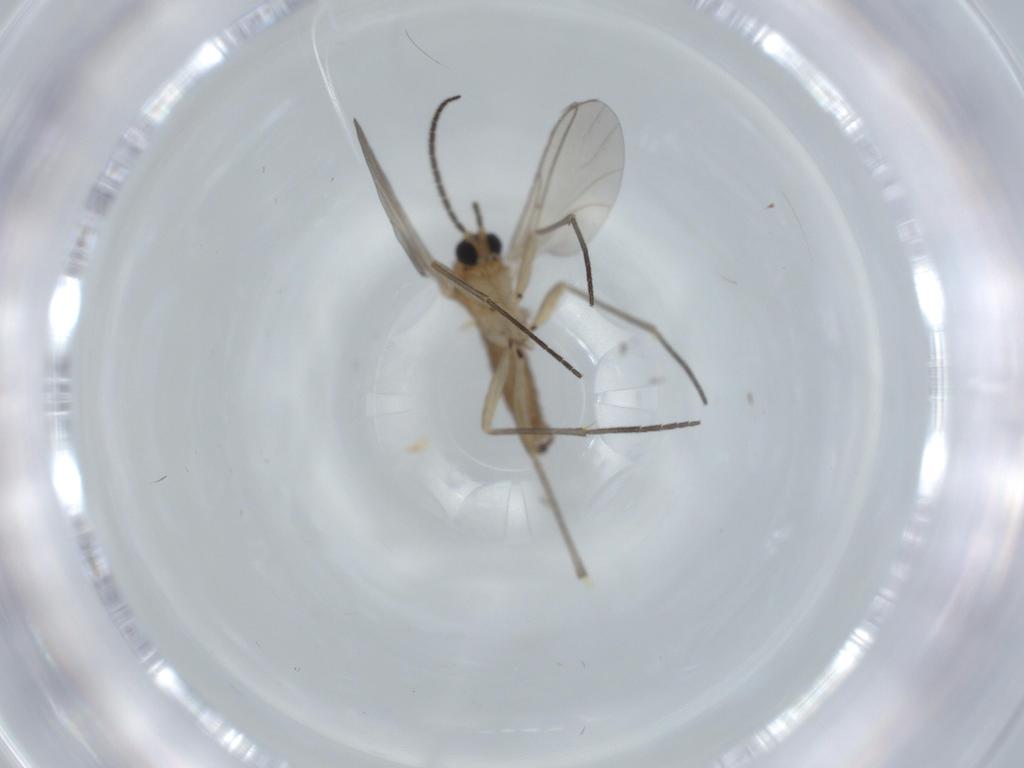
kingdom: Animalia
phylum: Arthropoda
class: Insecta
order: Diptera
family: Sciaridae
